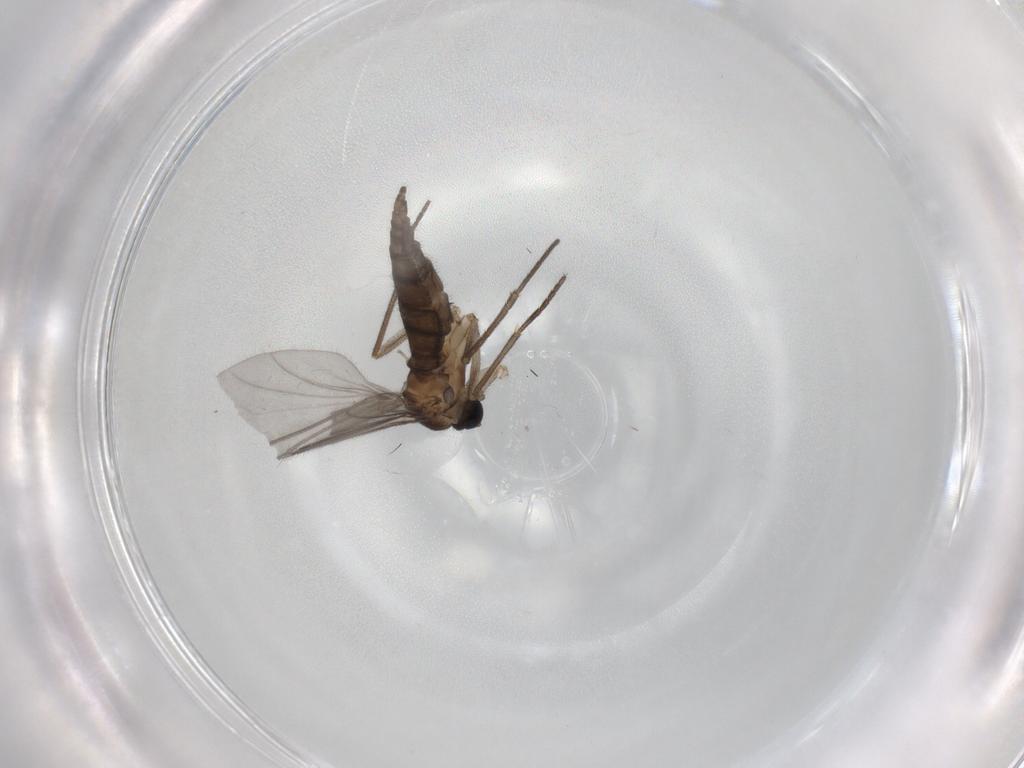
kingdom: Animalia
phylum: Arthropoda
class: Insecta
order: Diptera
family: Sciaridae
